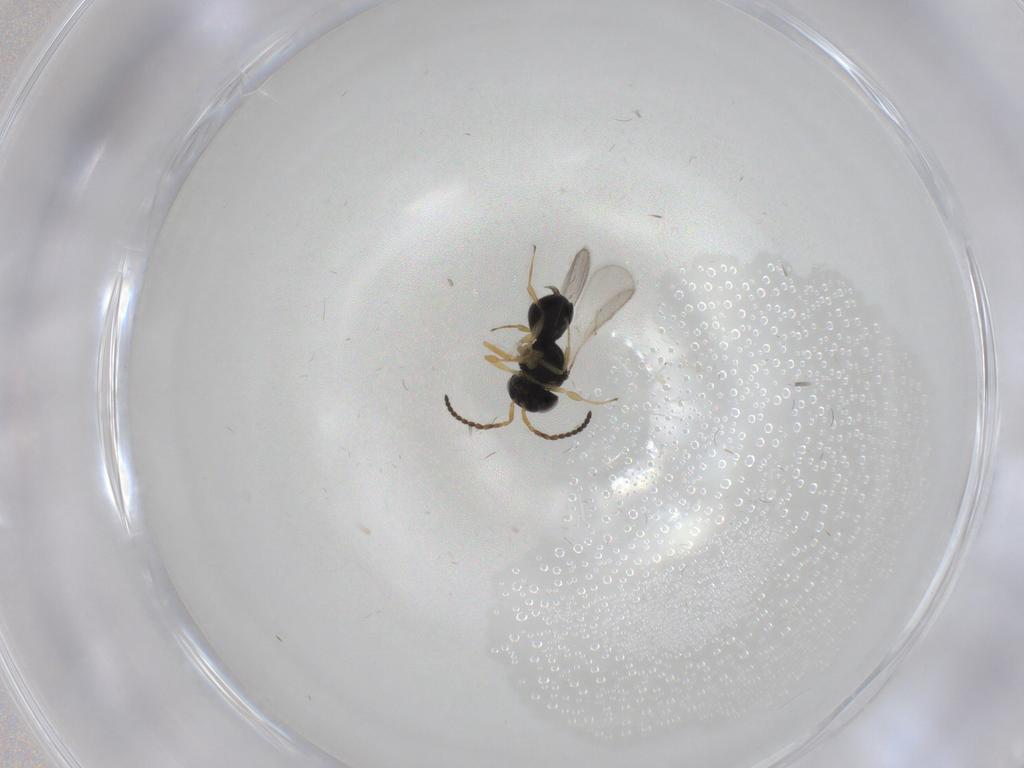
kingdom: Animalia
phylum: Arthropoda
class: Insecta
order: Hymenoptera
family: Scelionidae
